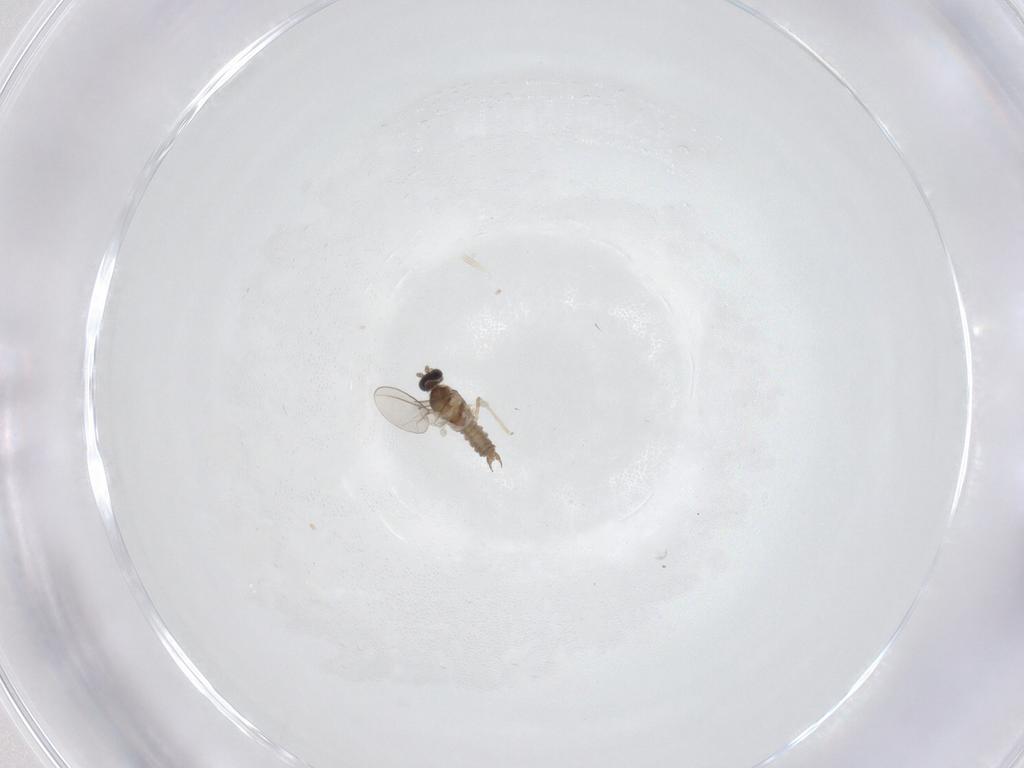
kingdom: Animalia
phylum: Arthropoda
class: Insecta
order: Diptera
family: Cecidomyiidae
